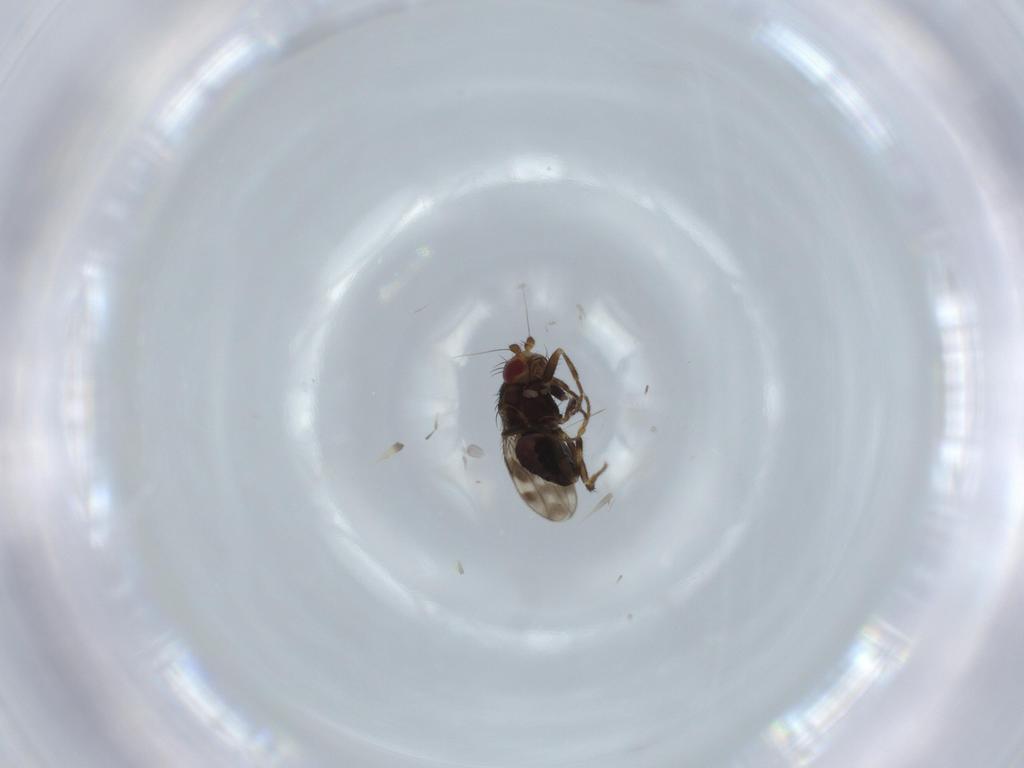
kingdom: Animalia
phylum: Arthropoda
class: Insecta
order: Diptera
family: Sphaeroceridae
